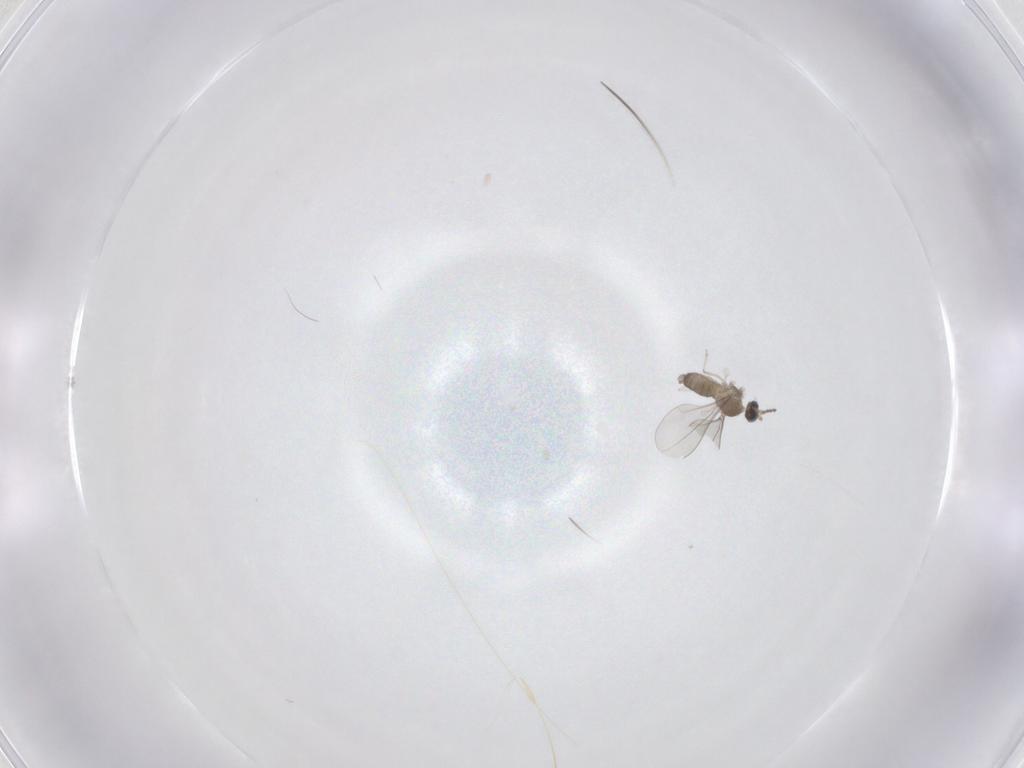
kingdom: Animalia
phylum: Arthropoda
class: Insecta
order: Diptera
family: Cecidomyiidae
